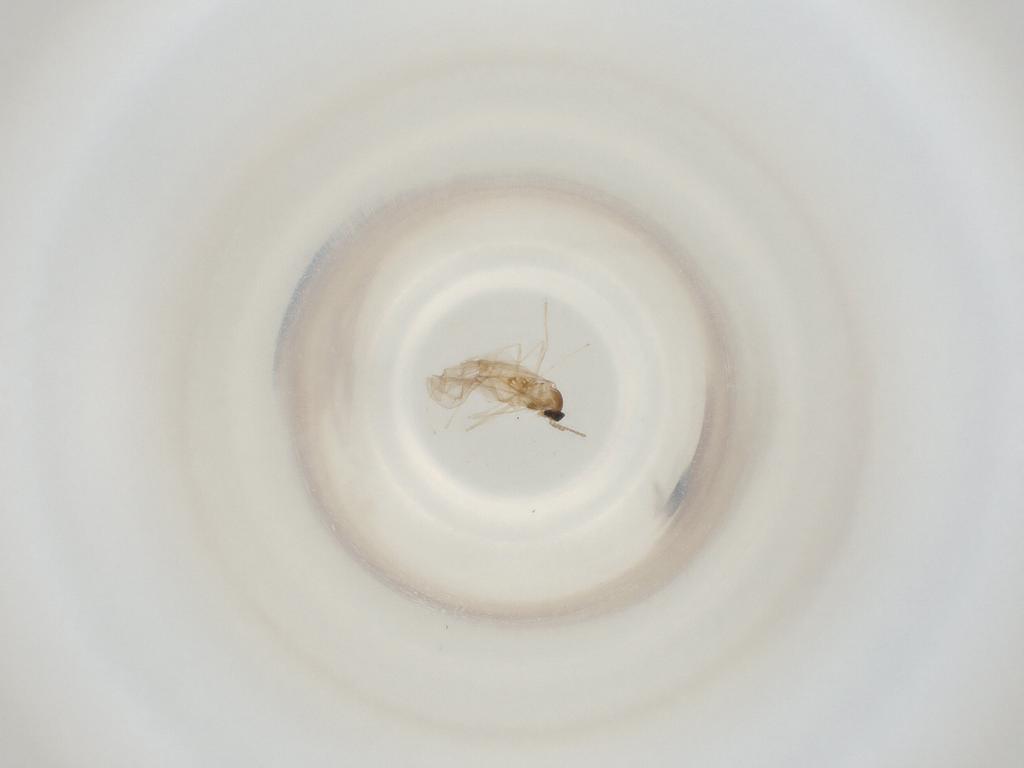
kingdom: Animalia
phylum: Arthropoda
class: Insecta
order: Diptera
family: Cecidomyiidae
